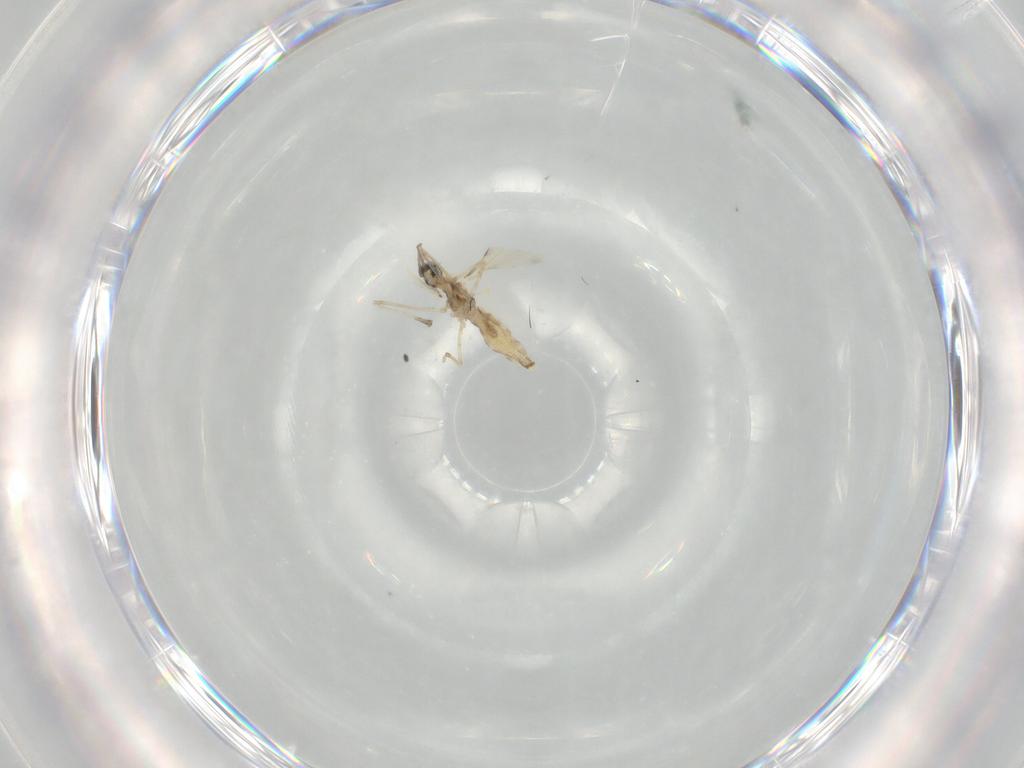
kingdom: Animalia
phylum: Arthropoda
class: Insecta
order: Diptera
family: Cecidomyiidae
